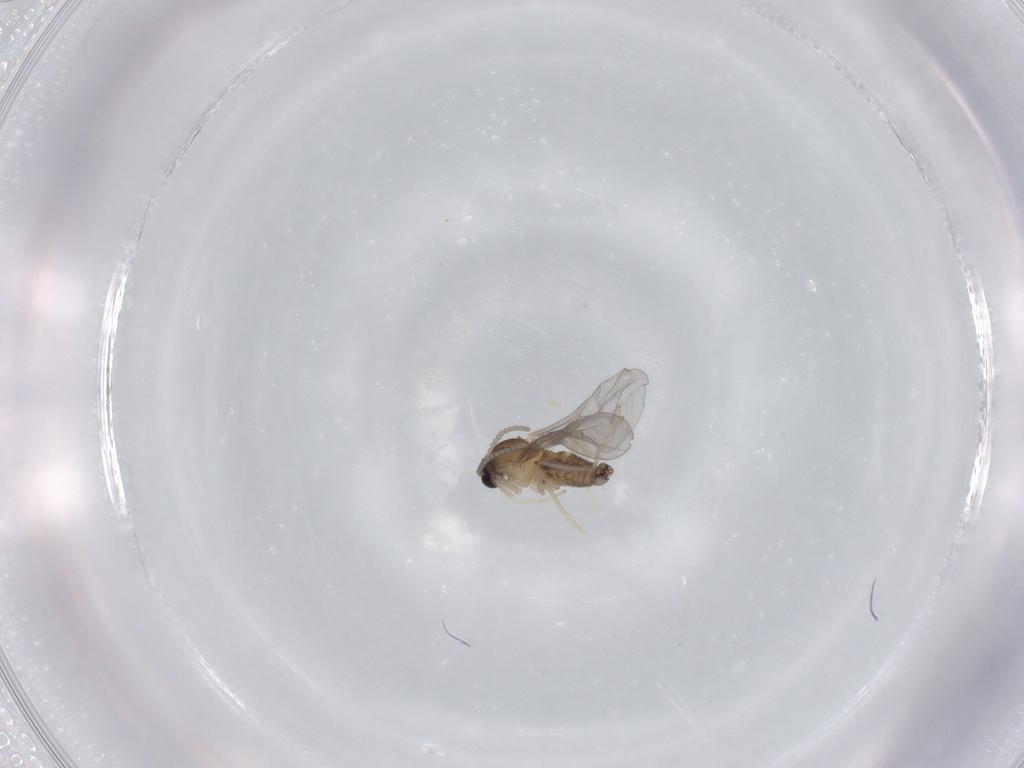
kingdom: Animalia
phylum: Arthropoda
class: Insecta
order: Diptera
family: Cecidomyiidae
